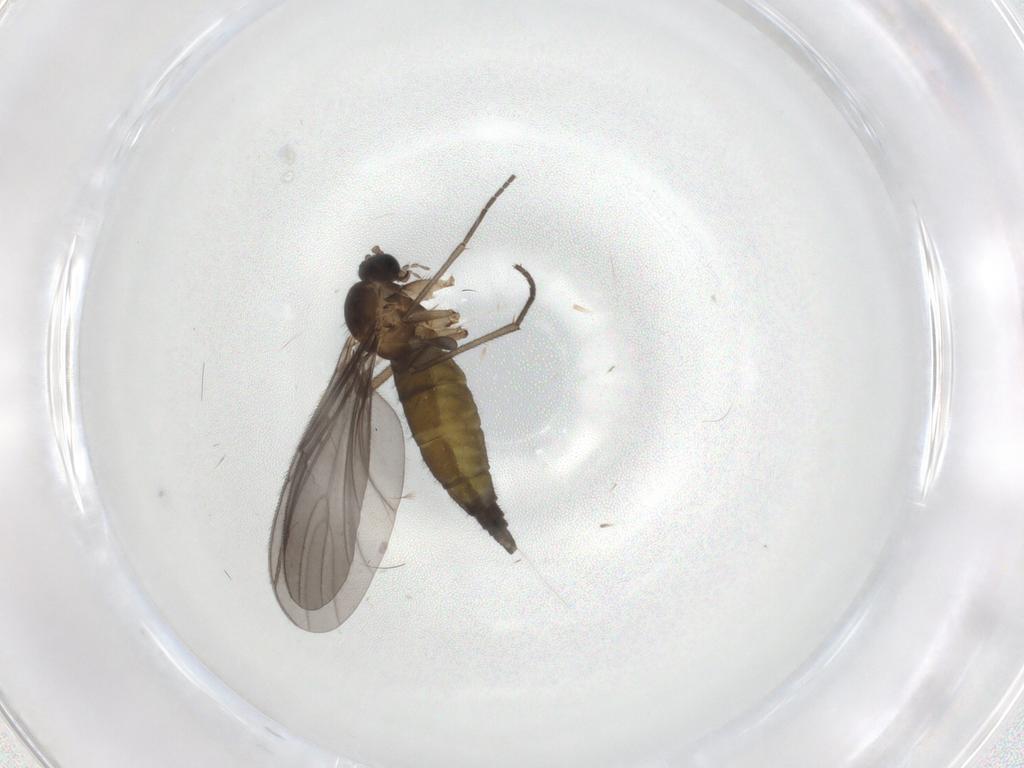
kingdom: Animalia
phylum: Arthropoda
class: Insecta
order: Diptera
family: Sciaridae
